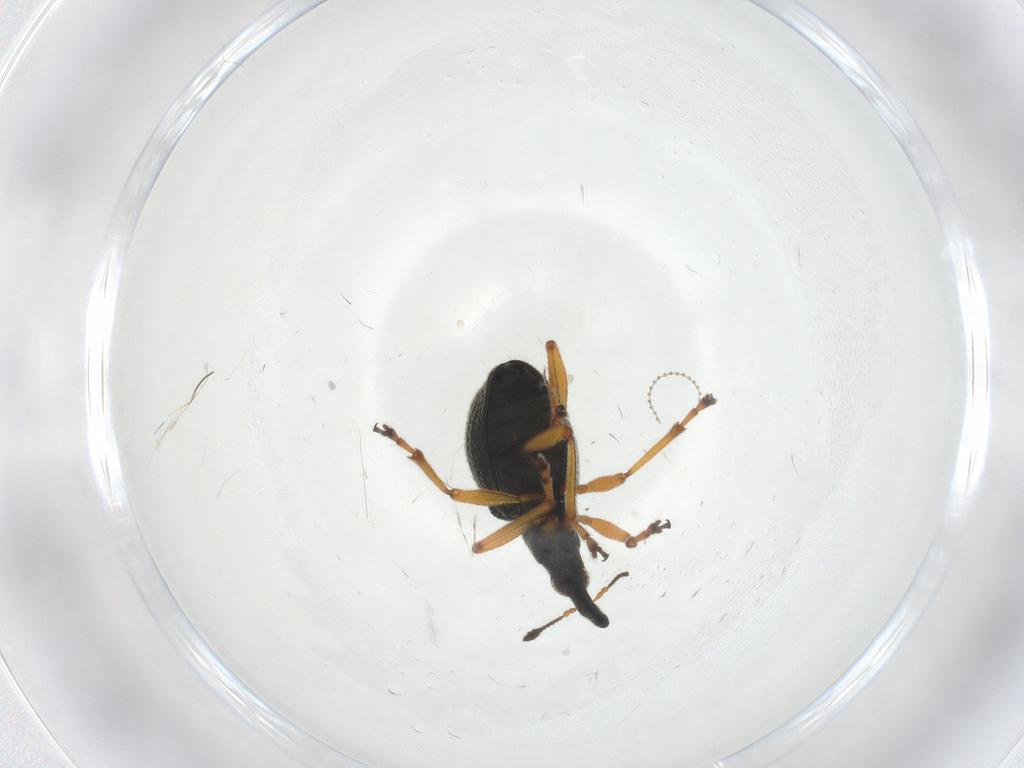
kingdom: Animalia
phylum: Arthropoda
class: Insecta
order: Coleoptera
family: Brentidae
